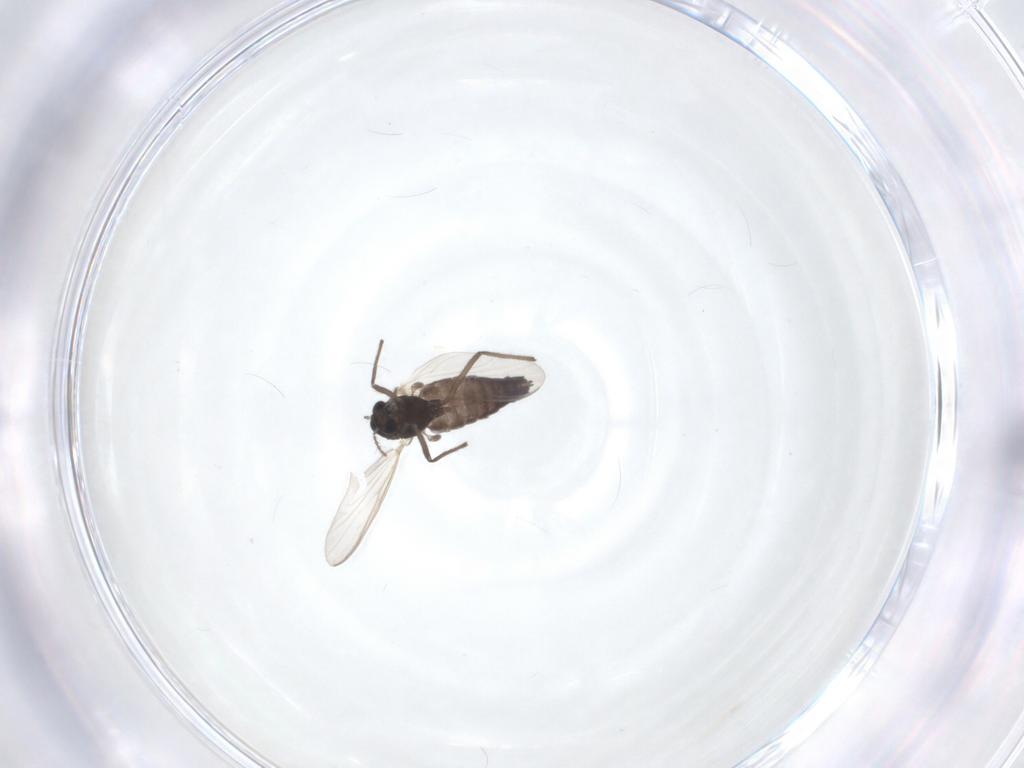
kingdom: Animalia
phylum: Arthropoda
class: Insecta
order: Diptera
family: Chironomidae
